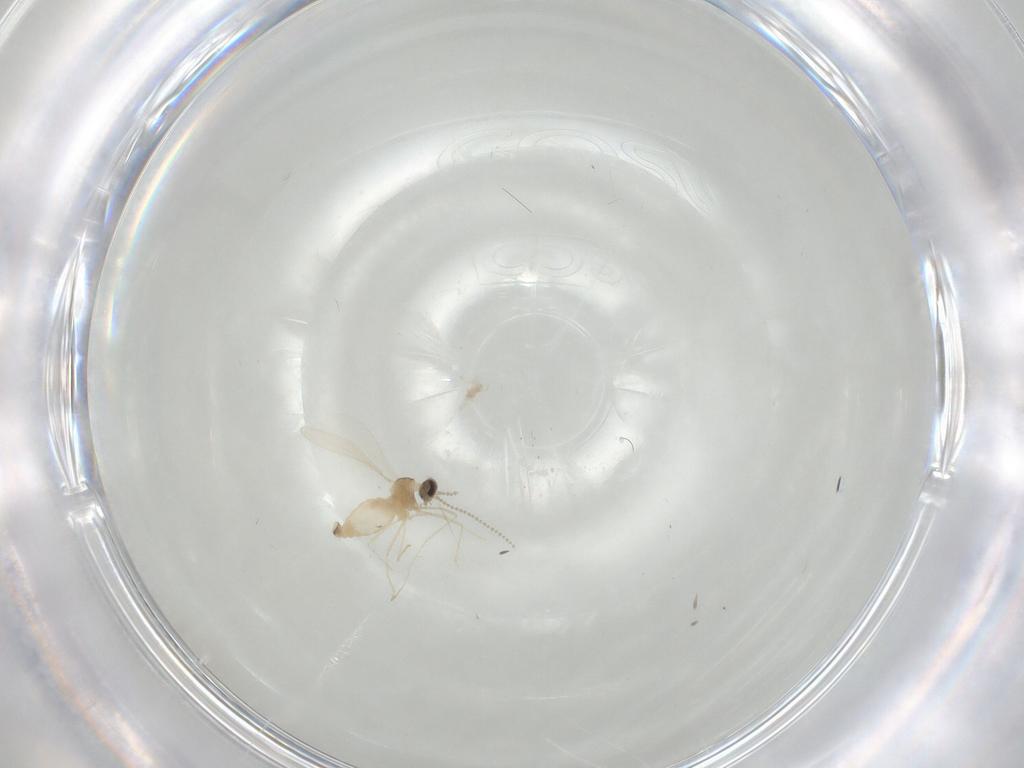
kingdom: Animalia
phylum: Arthropoda
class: Insecta
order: Diptera
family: Cecidomyiidae
